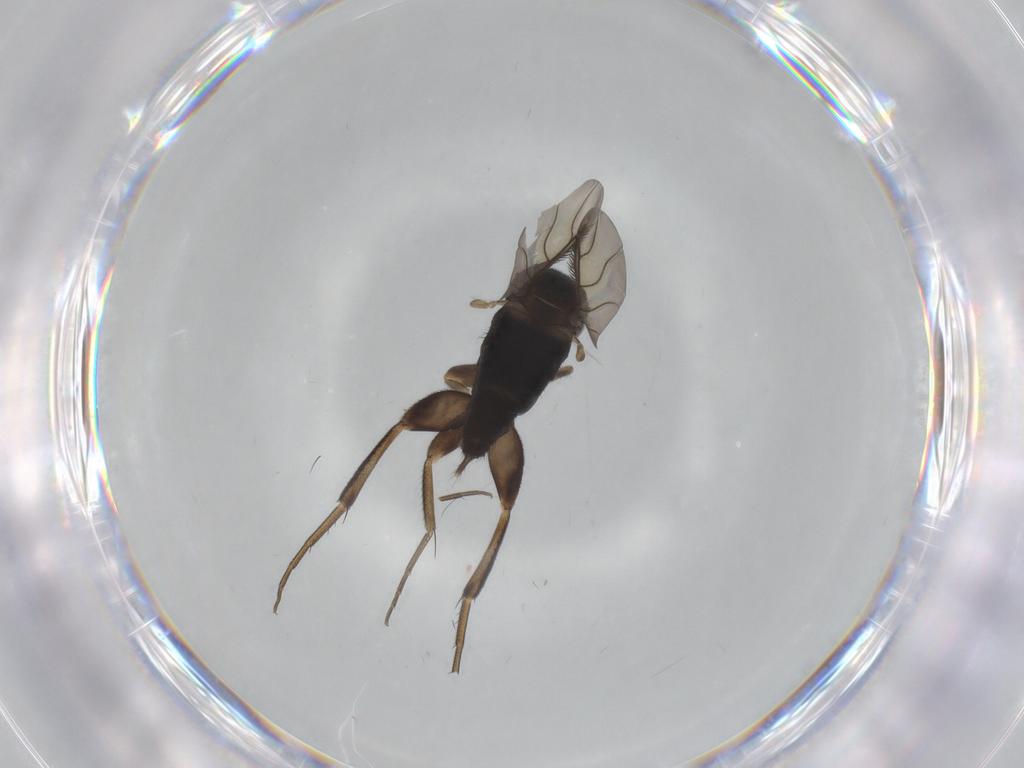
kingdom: Animalia
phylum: Arthropoda
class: Insecta
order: Diptera
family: Phoridae
